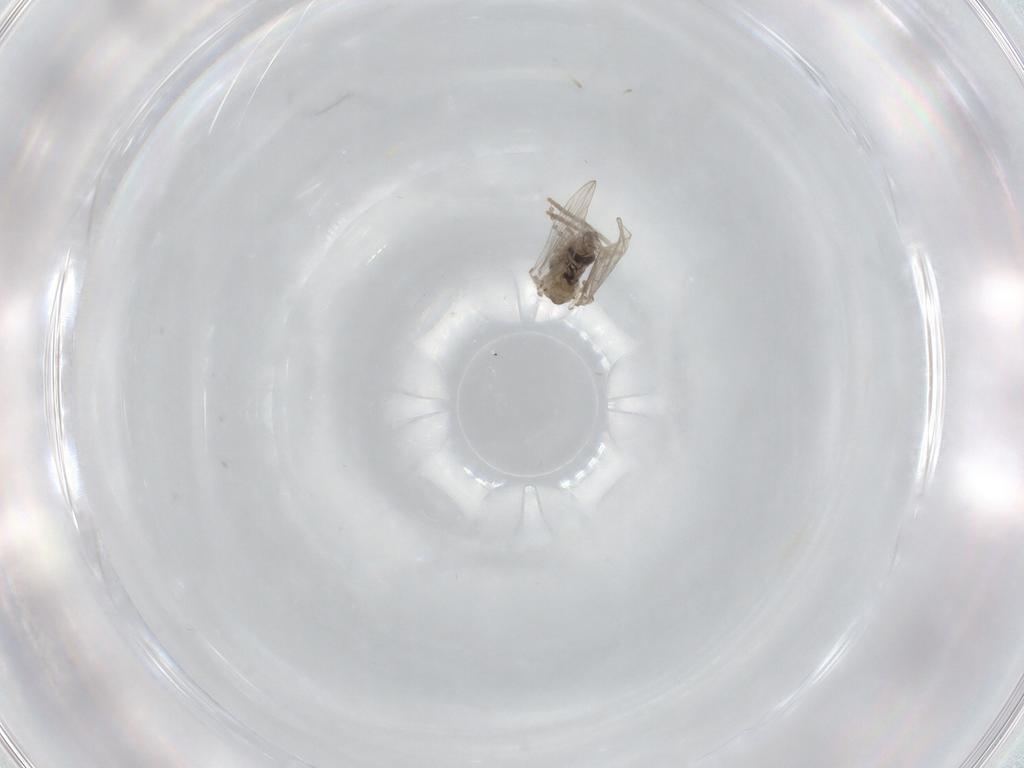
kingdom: Animalia
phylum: Arthropoda
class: Insecta
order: Diptera
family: Psychodidae
